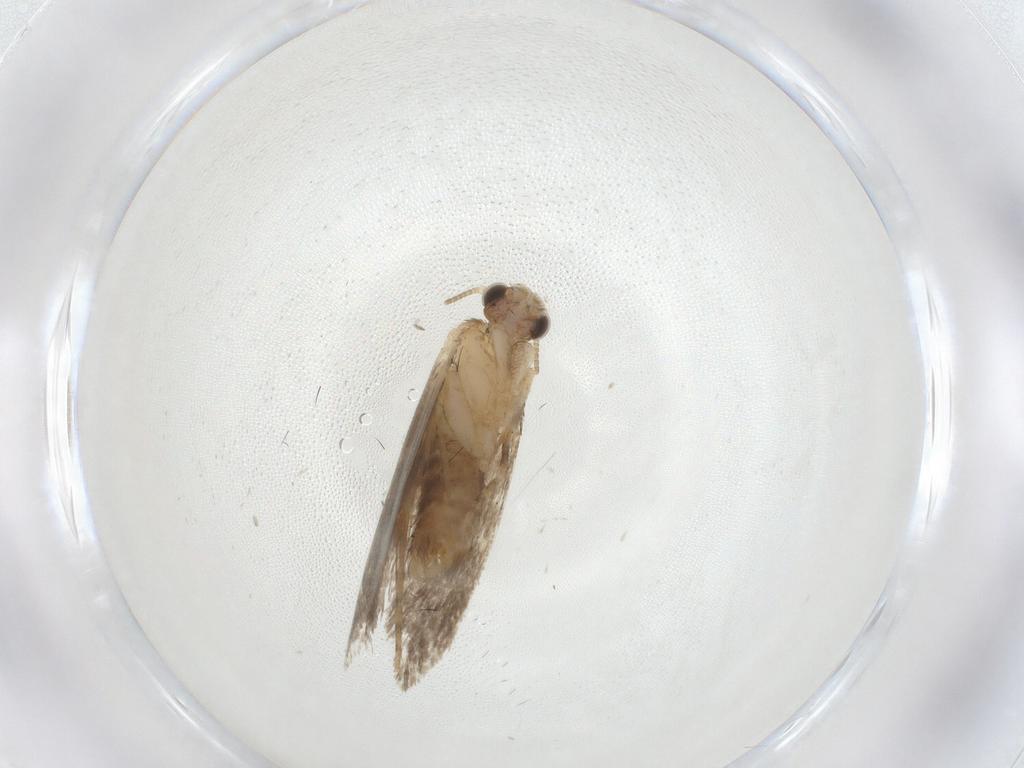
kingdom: Animalia
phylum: Arthropoda
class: Insecta
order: Lepidoptera
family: Dryadaulidae
